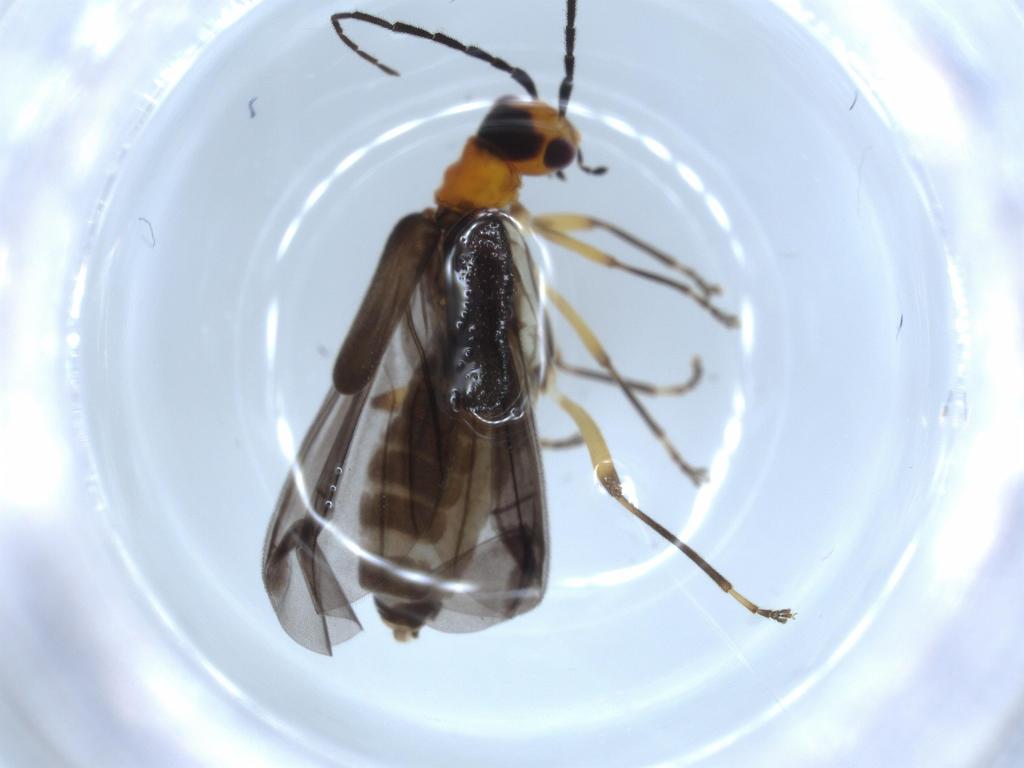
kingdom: Animalia
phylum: Arthropoda
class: Insecta
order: Coleoptera
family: Cantharidae
